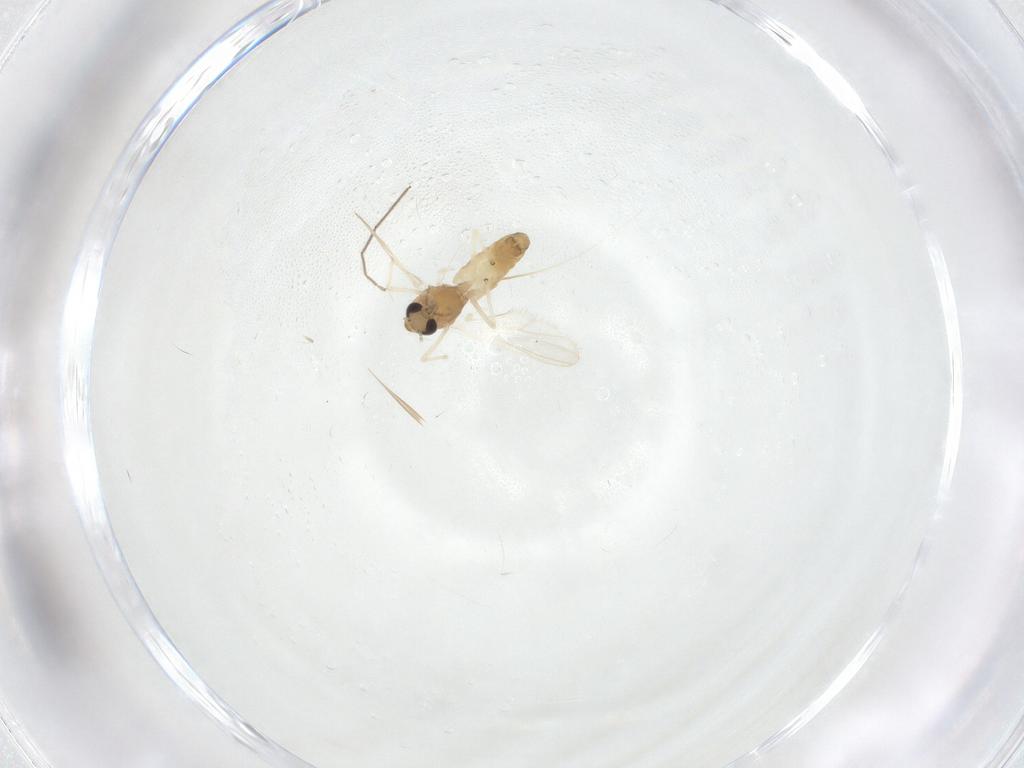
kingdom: Animalia
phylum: Arthropoda
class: Insecta
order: Diptera
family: Chironomidae
